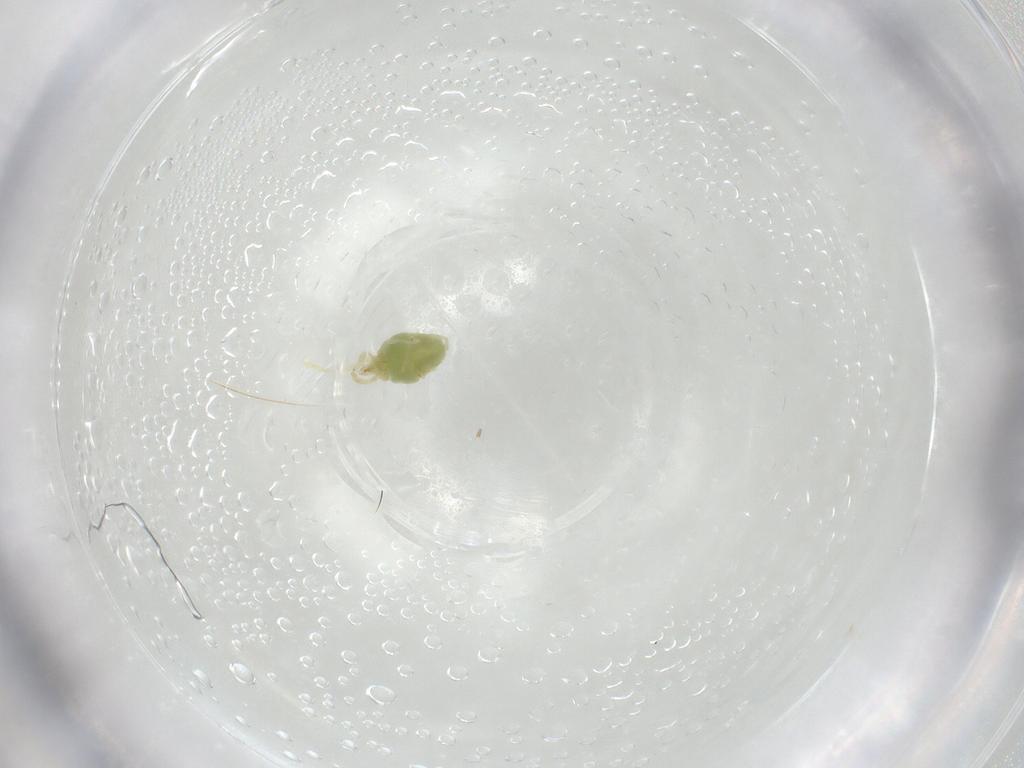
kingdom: Animalia
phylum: Arthropoda
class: Arachnida
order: Trombidiformes
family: Erythraeidae
